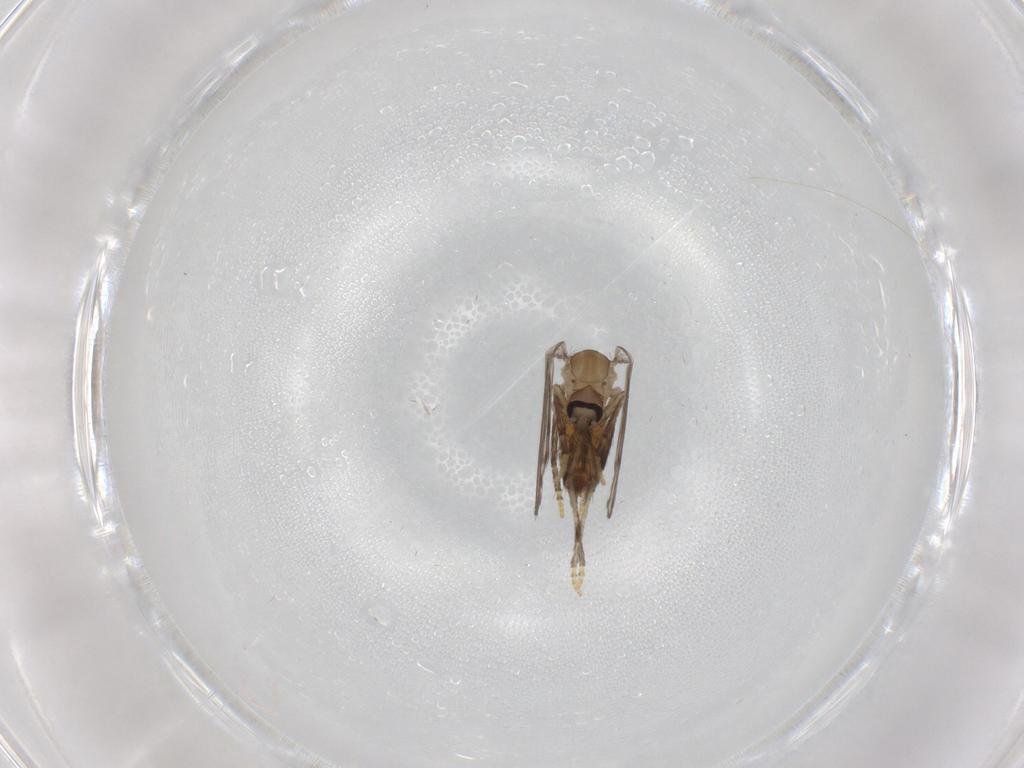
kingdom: Animalia
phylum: Arthropoda
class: Insecta
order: Diptera
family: Psychodidae
